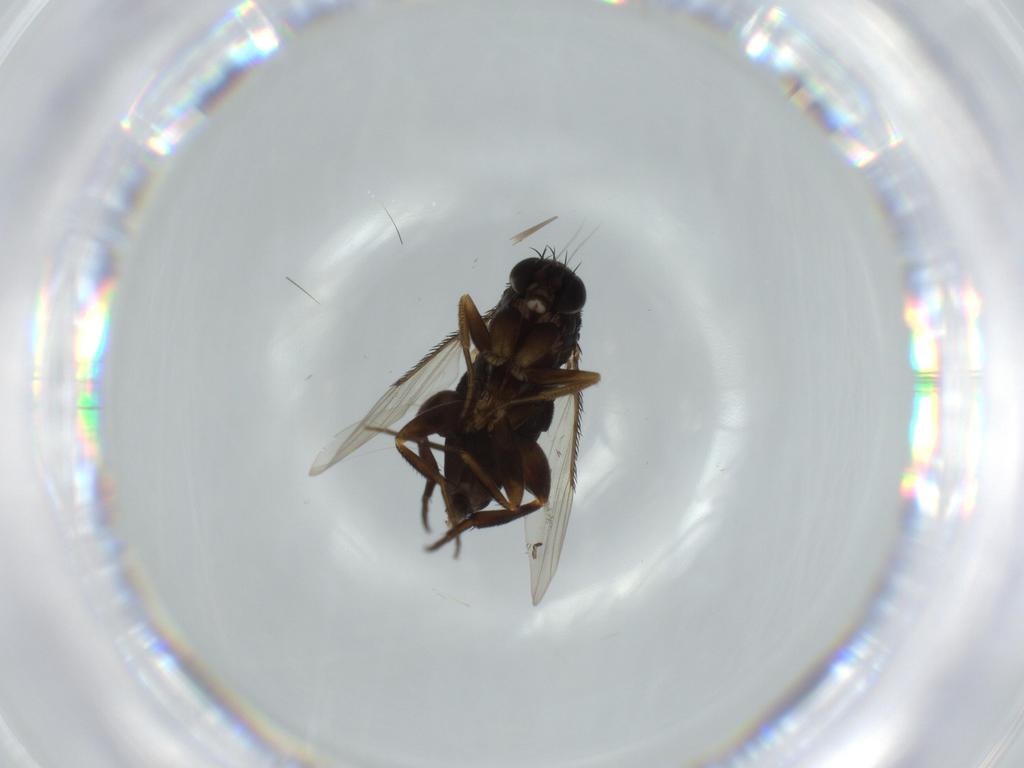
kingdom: Animalia
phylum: Arthropoda
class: Insecta
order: Diptera
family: Phoridae
